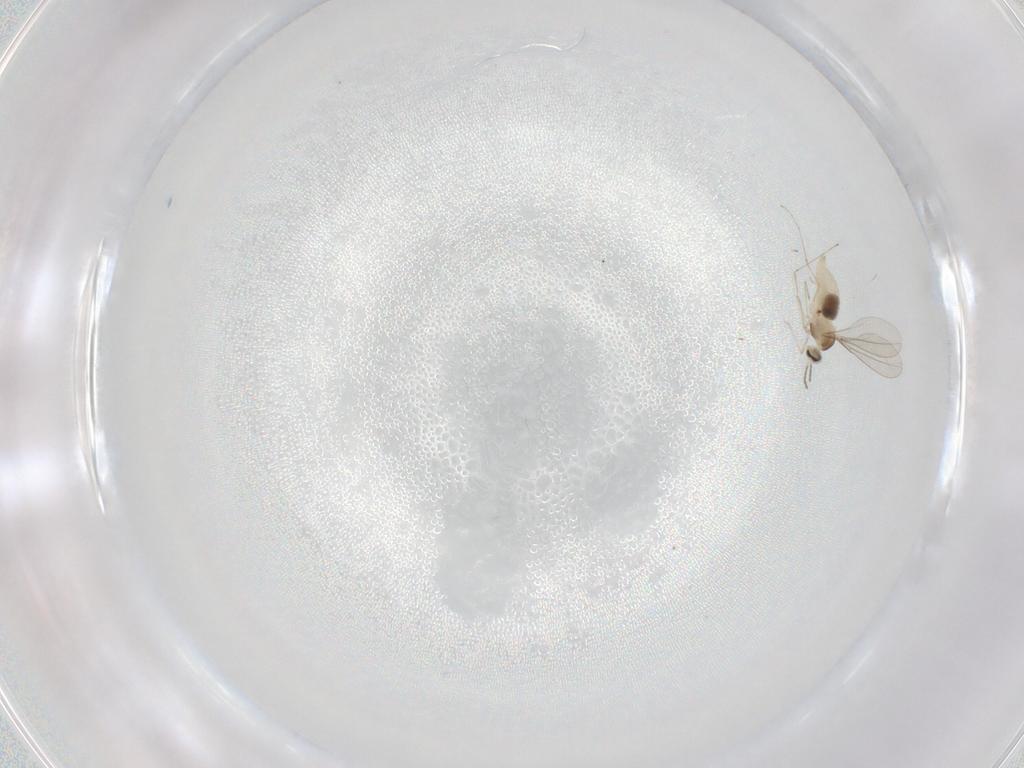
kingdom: Animalia
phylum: Arthropoda
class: Insecta
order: Diptera
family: Cecidomyiidae
